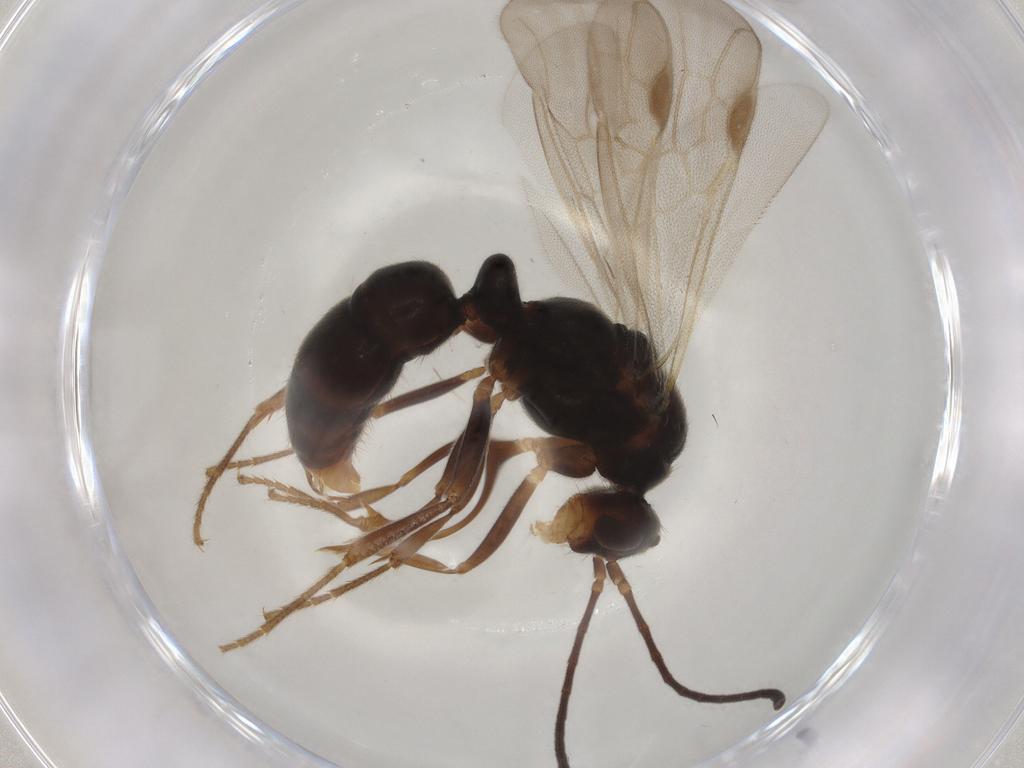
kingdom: Animalia
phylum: Arthropoda
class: Insecta
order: Hymenoptera
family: Formicidae
